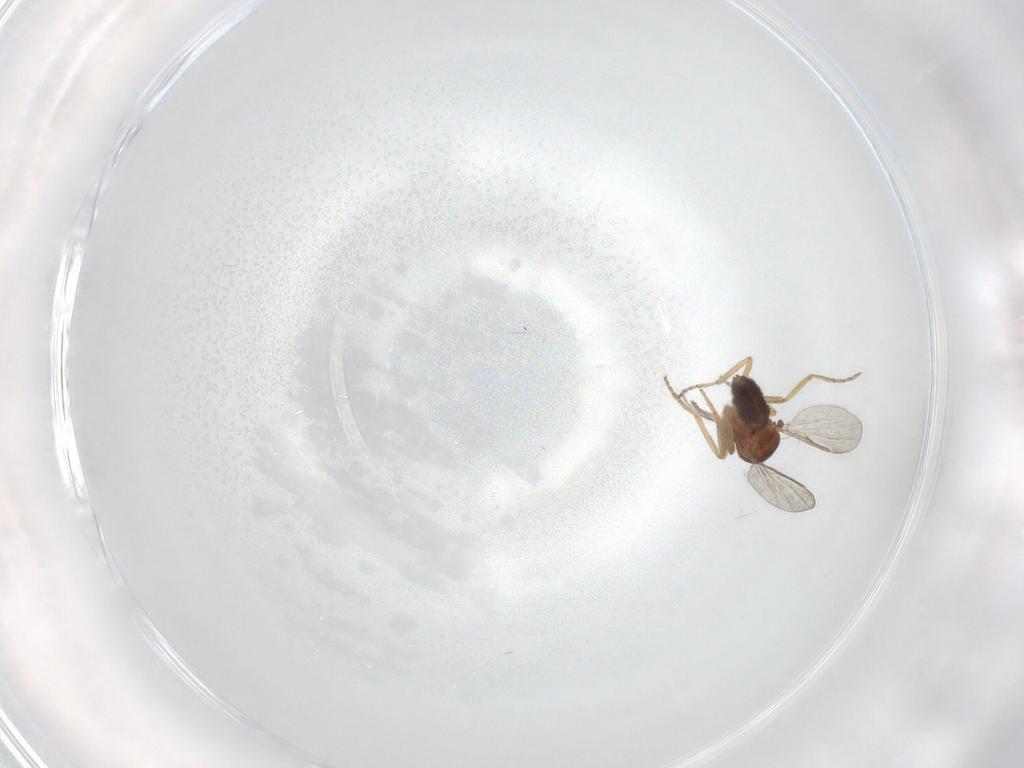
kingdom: Animalia
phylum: Arthropoda
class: Insecta
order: Diptera
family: Ceratopogonidae
